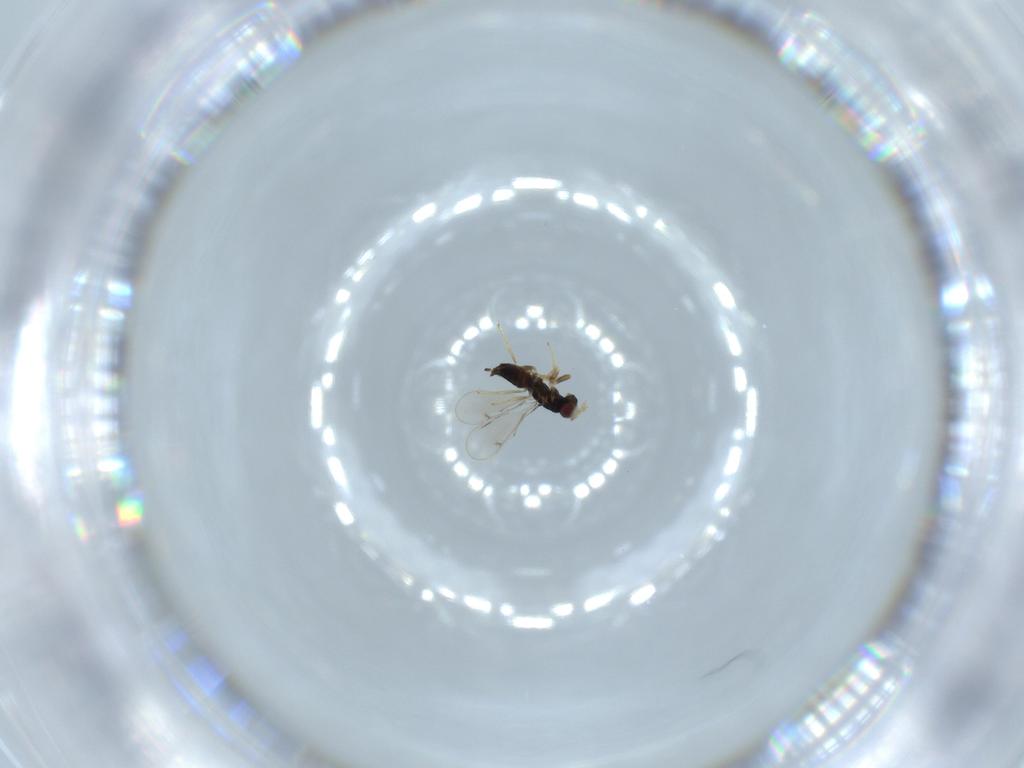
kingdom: Animalia
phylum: Arthropoda
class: Insecta
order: Hymenoptera
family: Eulophidae
